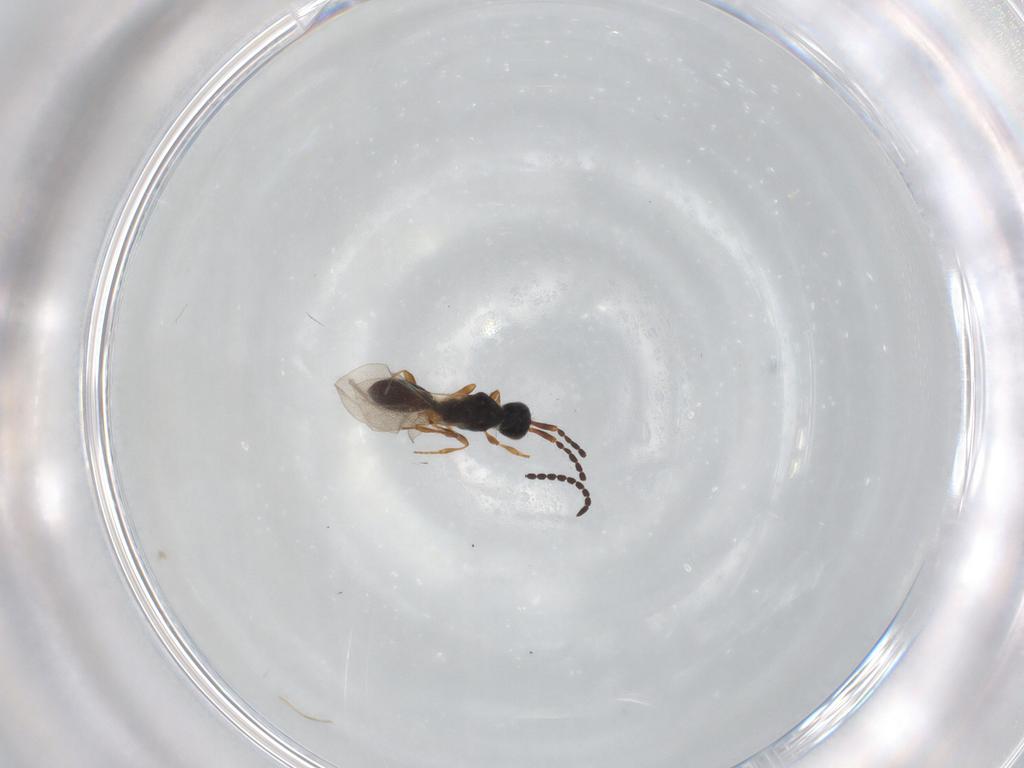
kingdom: Animalia
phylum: Arthropoda
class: Insecta
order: Hymenoptera
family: Diapriidae
